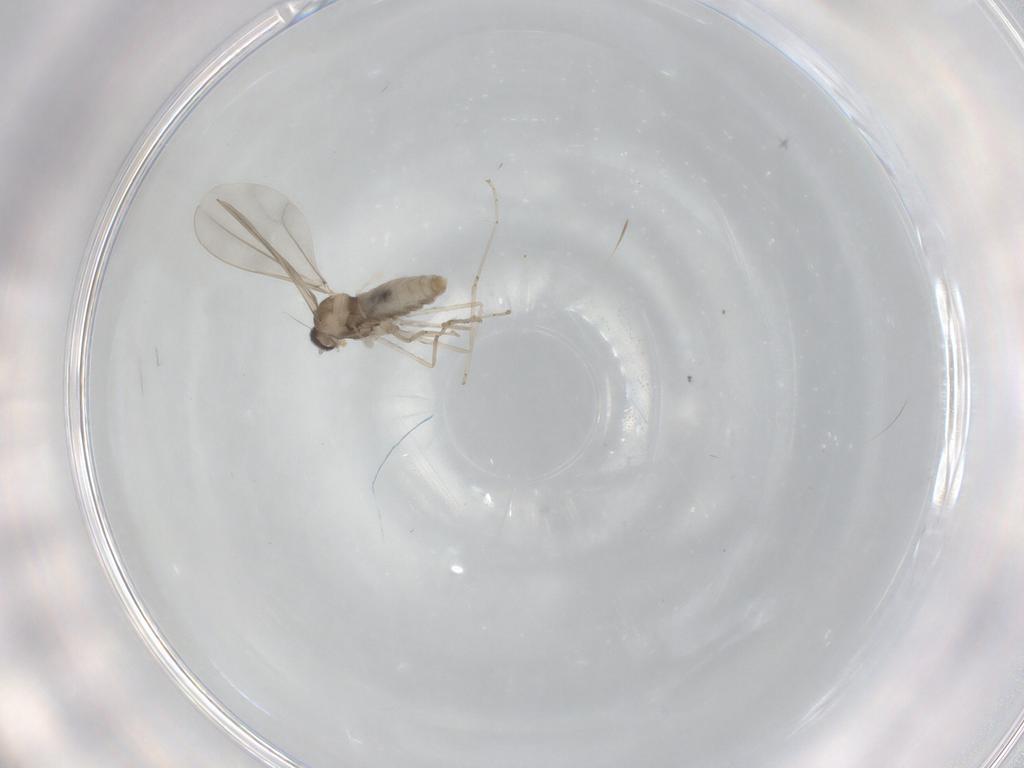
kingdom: Animalia
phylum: Arthropoda
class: Insecta
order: Diptera
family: Cecidomyiidae
